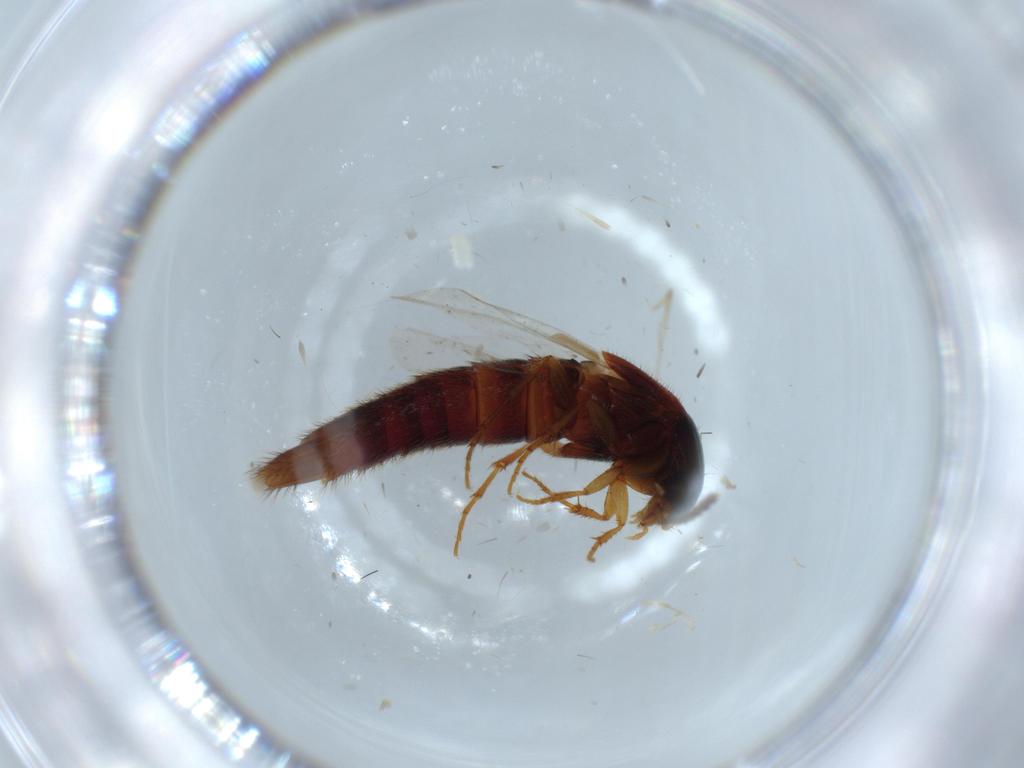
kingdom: Animalia
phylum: Arthropoda
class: Insecta
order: Coleoptera
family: Staphylinidae
